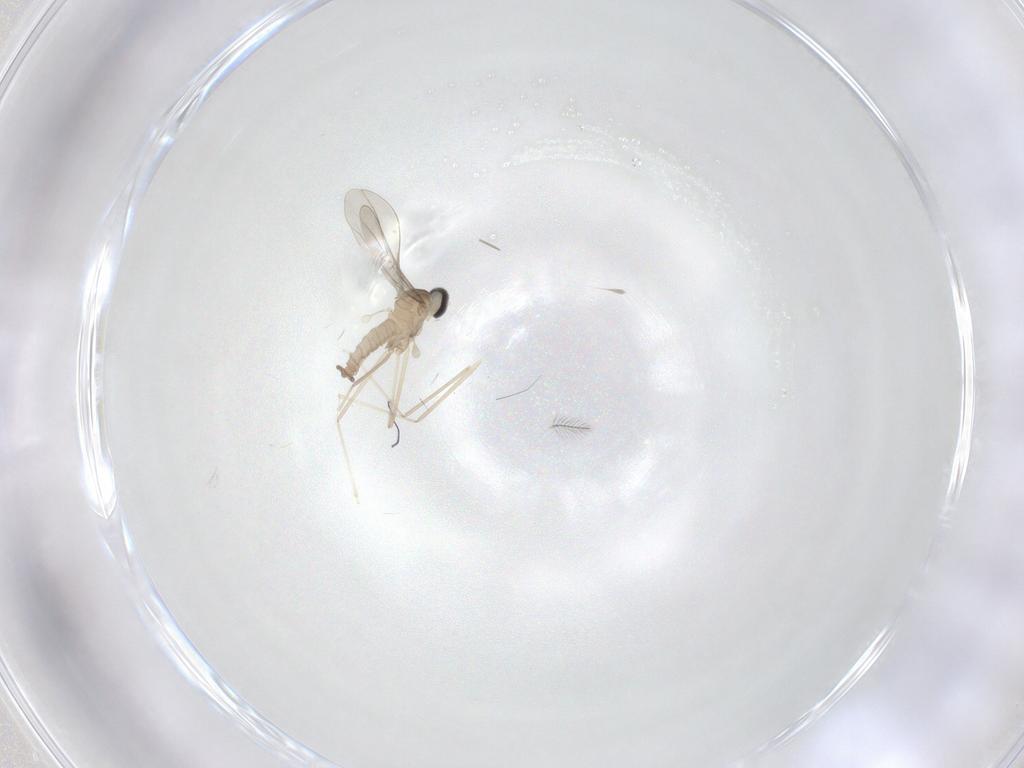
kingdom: Animalia
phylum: Arthropoda
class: Insecta
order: Diptera
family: Cecidomyiidae
